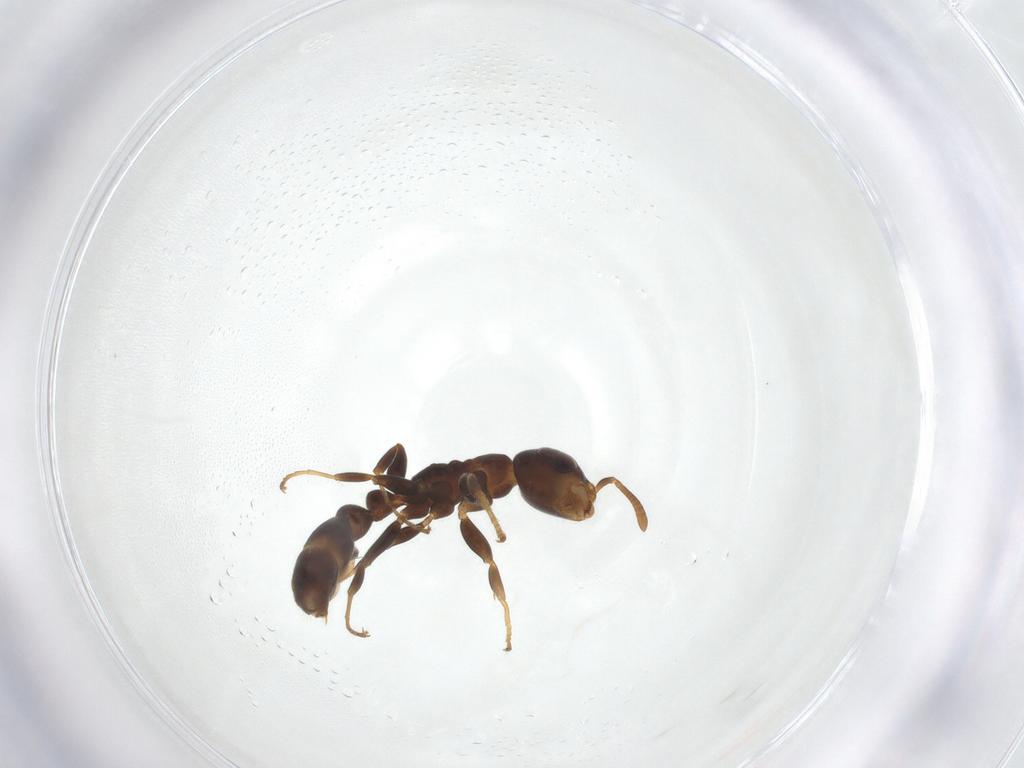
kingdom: Animalia
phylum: Arthropoda
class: Insecta
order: Hymenoptera
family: Formicidae
